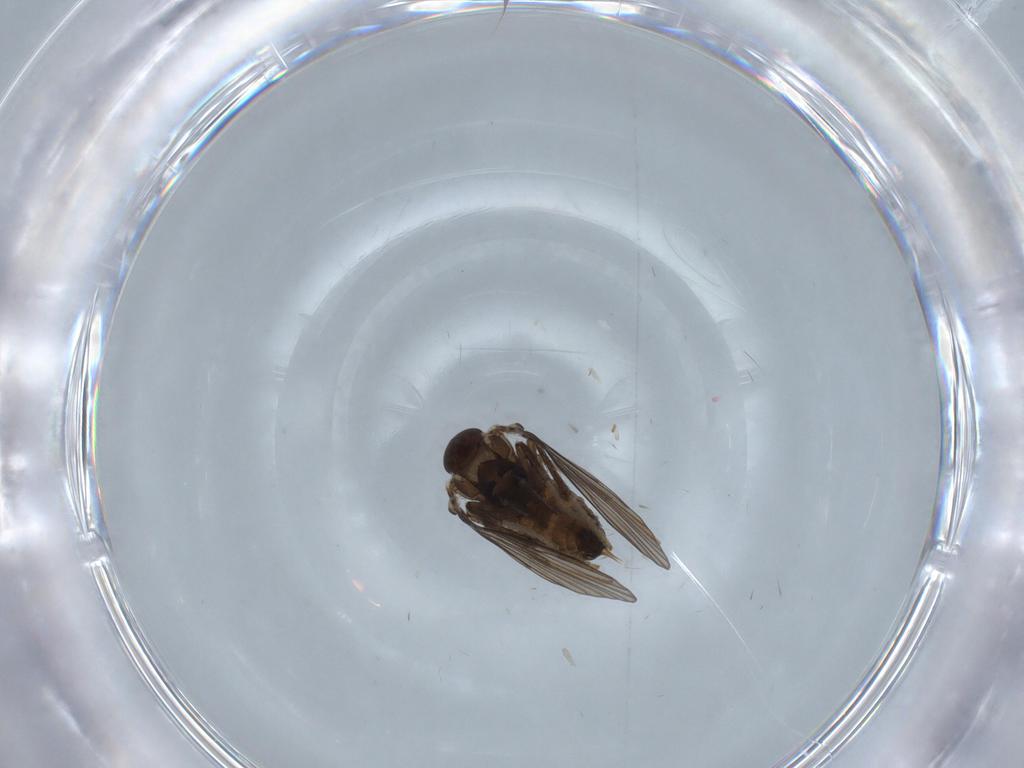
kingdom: Animalia
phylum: Arthropoda
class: Insecta
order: Diptera
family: Psychodidae
